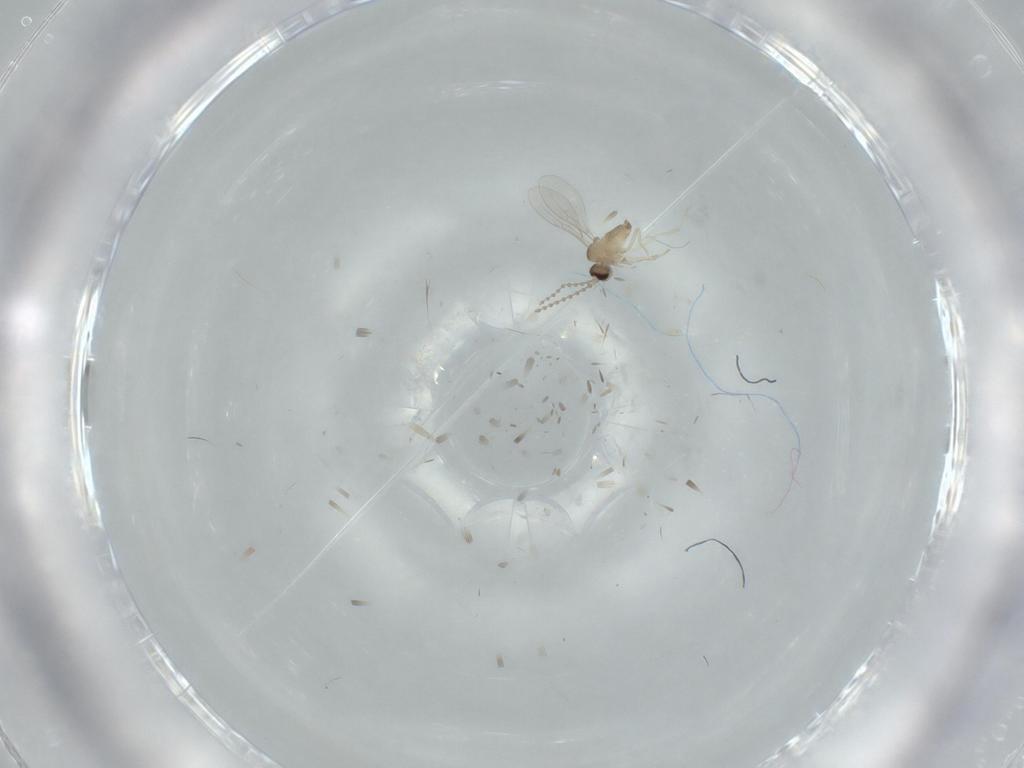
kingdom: Animalia
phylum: Arthropoda
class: Insecta
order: Diptera
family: Cecidomyiidae
